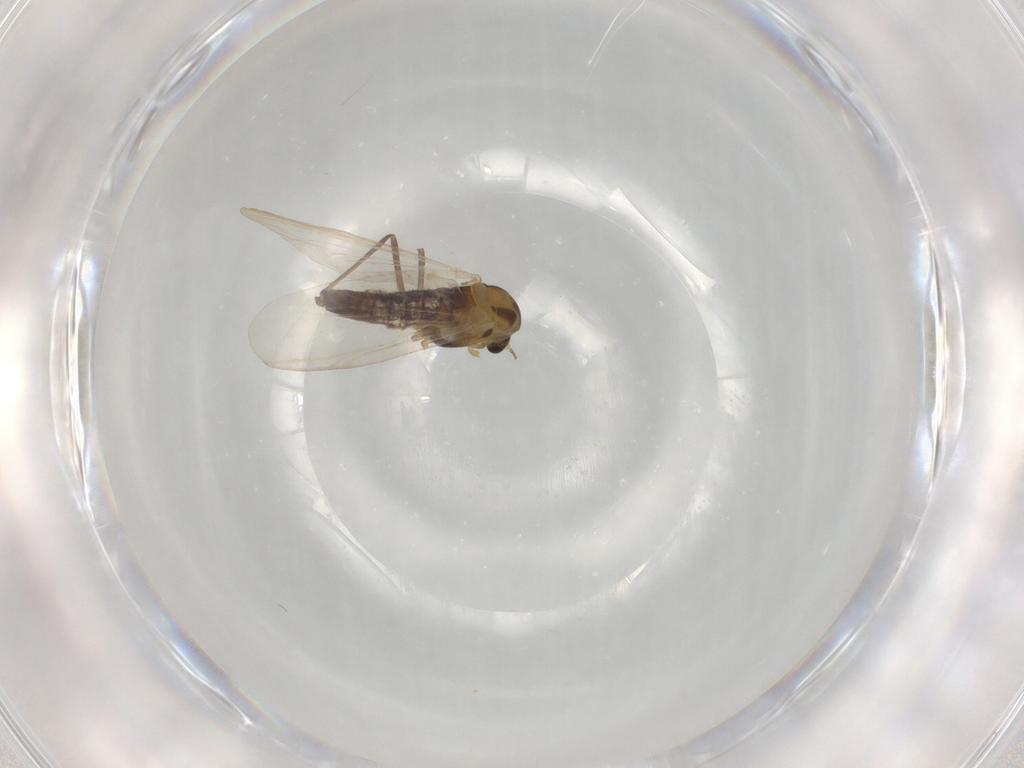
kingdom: Animalia
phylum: Arthropoda
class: Insecta
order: Diptera
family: Chironomidae
